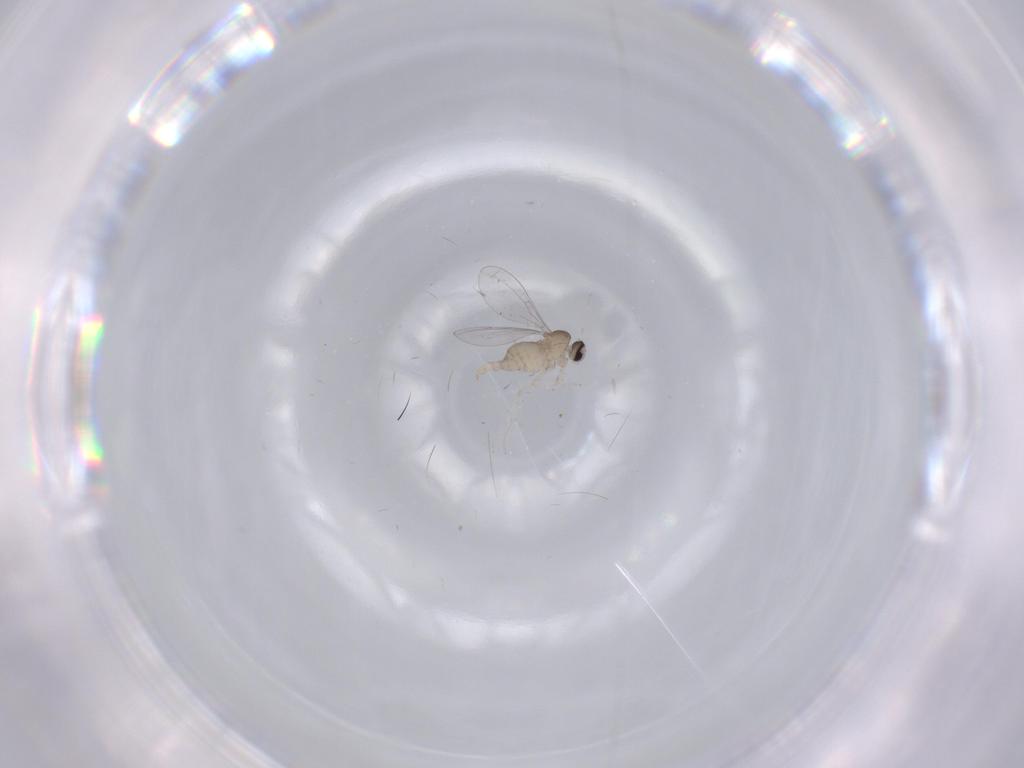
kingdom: Animalia
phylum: Arthropoda
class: Insecta
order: Diptera
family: Cecidomyiidae
